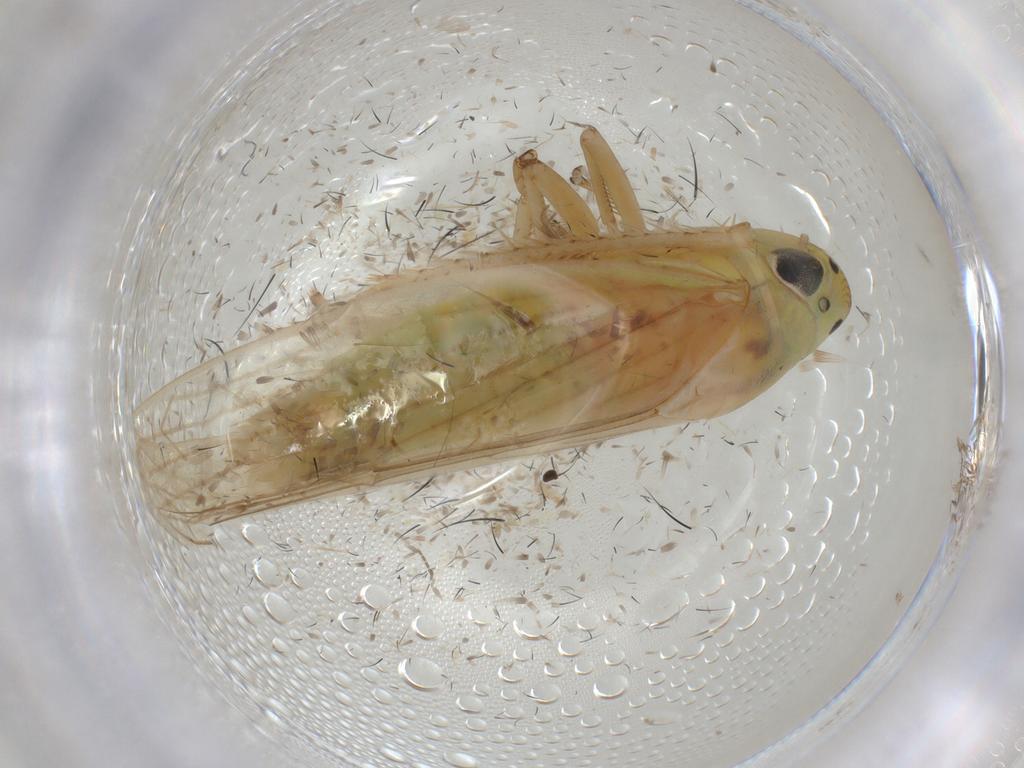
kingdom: Animalia
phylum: Arthropoda
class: Insecta
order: Hemiptera
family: Cicadellidae
